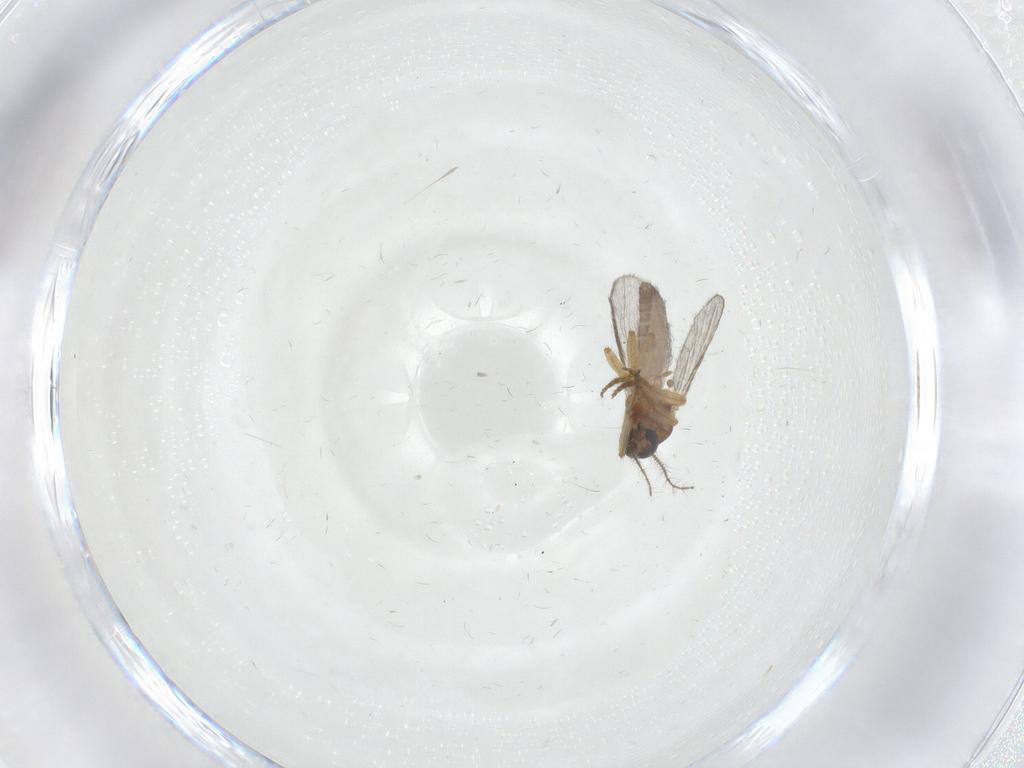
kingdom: Animalia
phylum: Arthropoda
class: Insecta
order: Diptera
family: Ceratopogonidae
